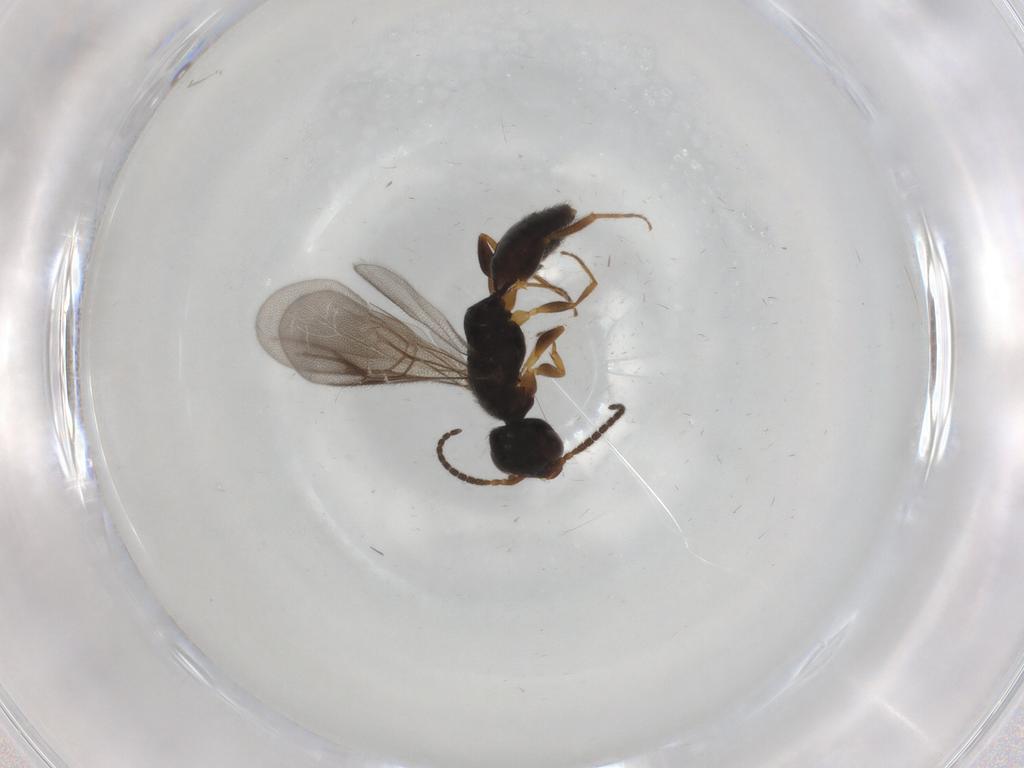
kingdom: Animalia
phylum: Arthropoda
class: Insecta
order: Hymenoptera
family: Bethylidae
